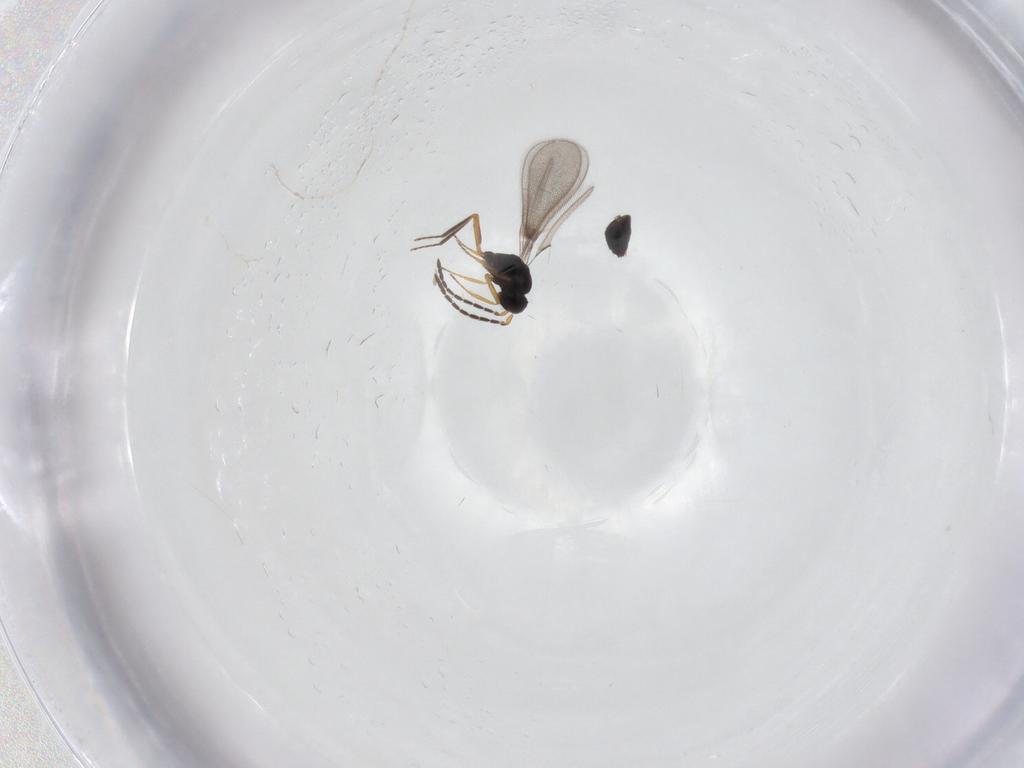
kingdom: Animalia
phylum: Arthropoda
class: Insecta
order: Hymenoptera
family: Mymaridae
